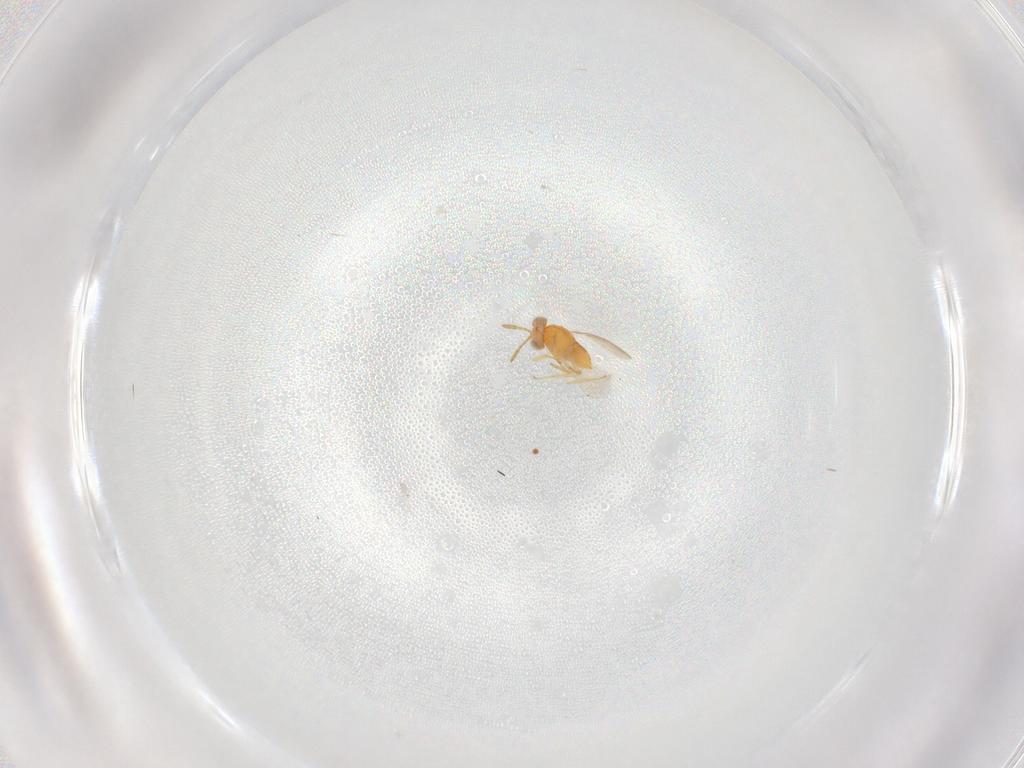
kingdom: Animalia
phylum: Arthropoda
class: Insecta
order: Hymenoptera
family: Aphelinidae
